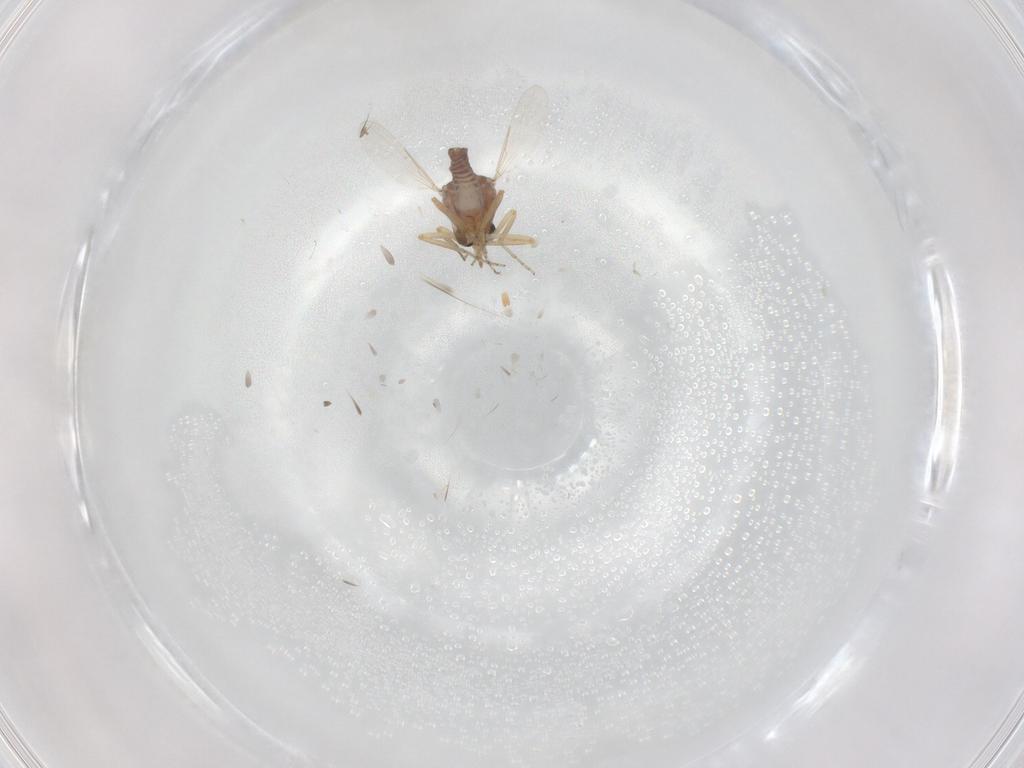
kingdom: Animalia
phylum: Arthropoda
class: Insecta
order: Diptera
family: Ceratopogonidae
